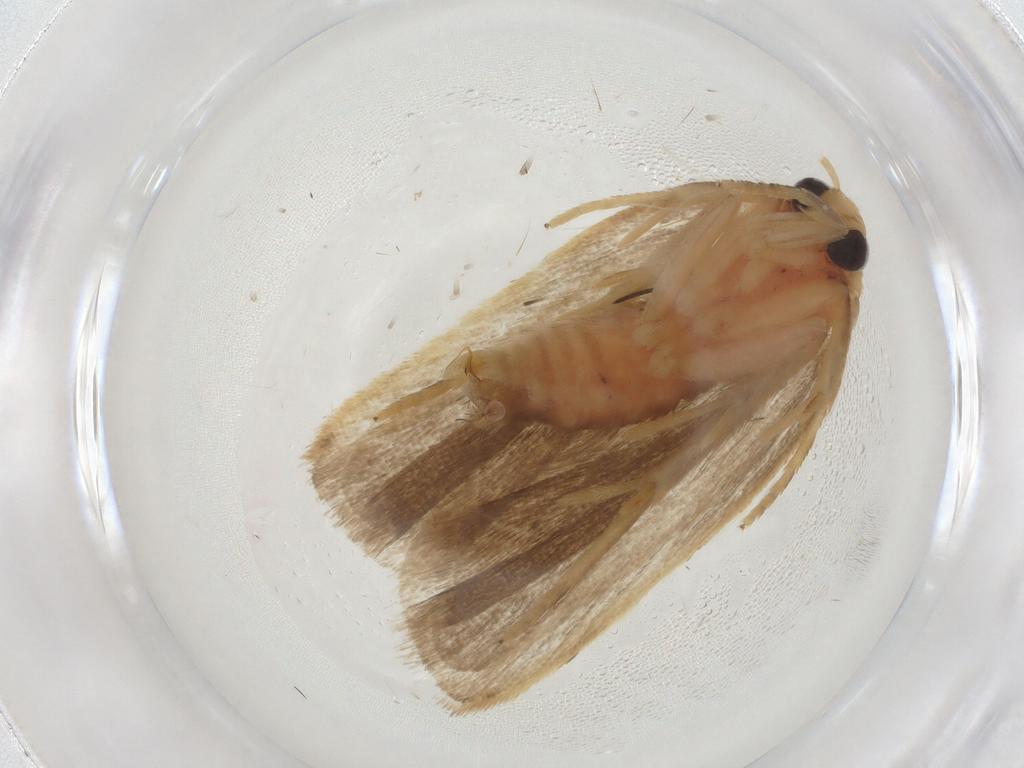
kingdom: Animalia
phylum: Arthropoda
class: Insecta
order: Lepidoptera
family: Depressariidae
